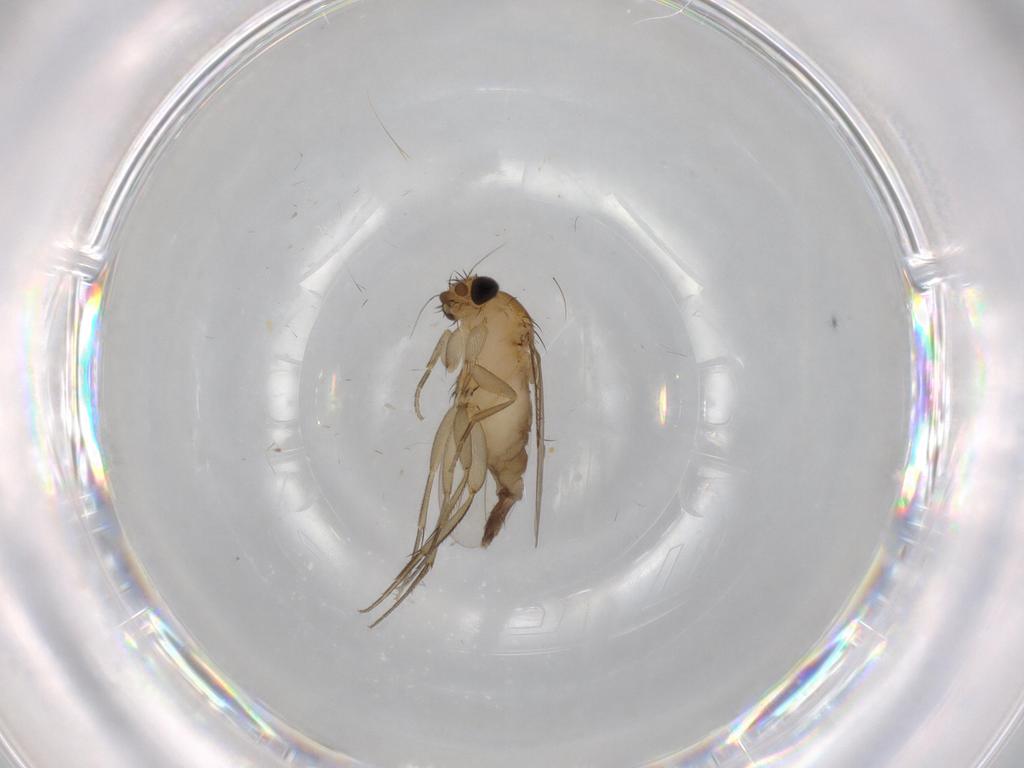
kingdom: Animalia
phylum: Arthropoda
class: Insecta
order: Diptera
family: Phoridae
